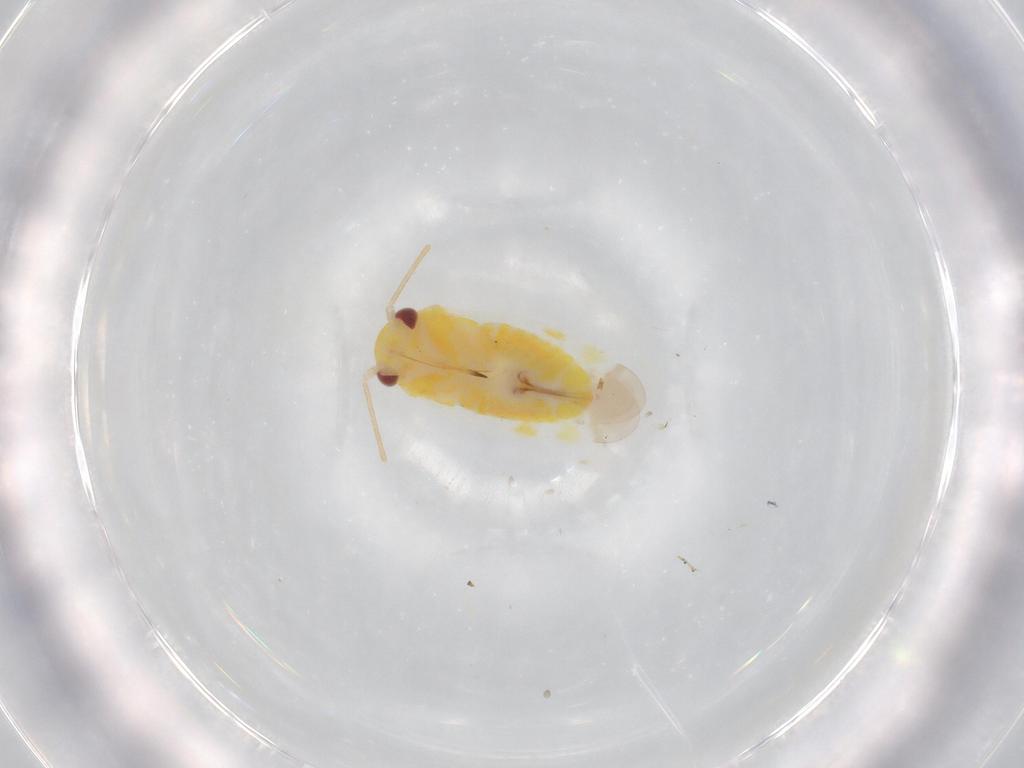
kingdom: Animalia
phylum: Arthropoda
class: Insecta
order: Hemiptera
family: Miridae
